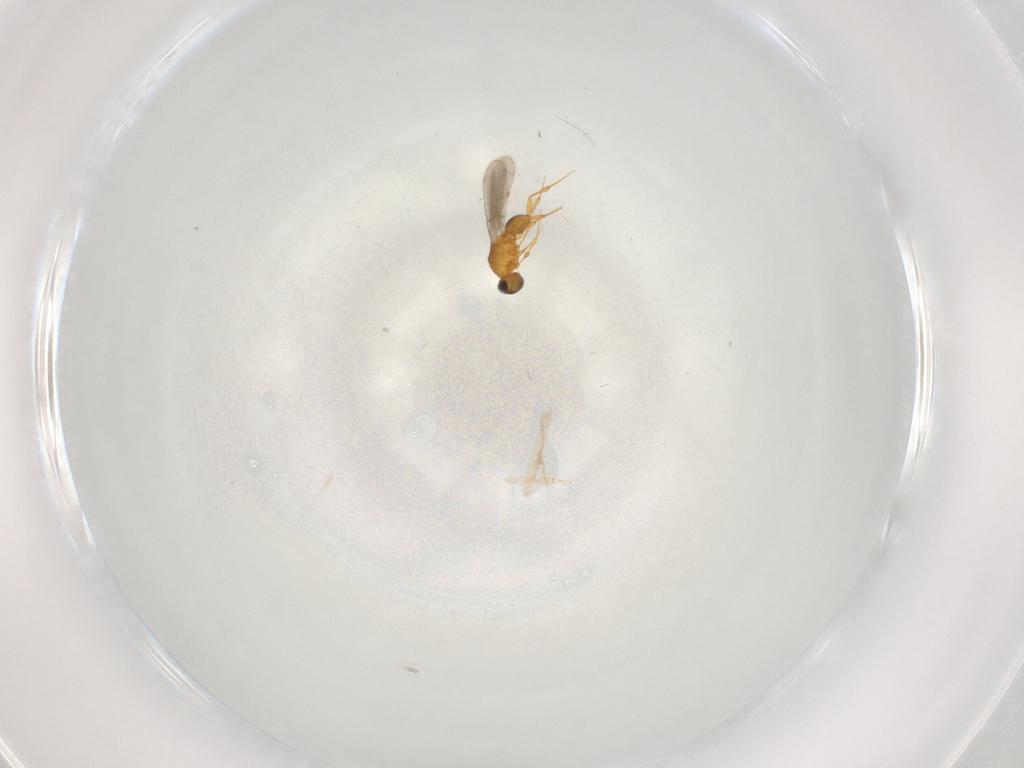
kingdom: Animalia
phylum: Arthropoda
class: Insecta
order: Hymenoptera
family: Platygastridae
